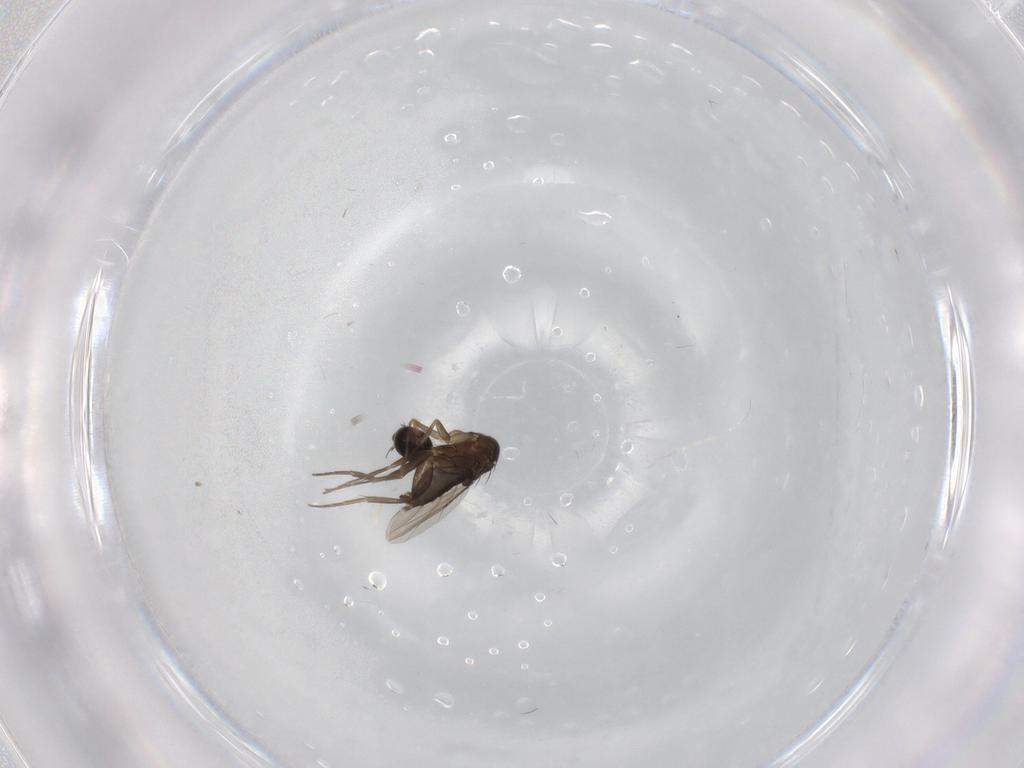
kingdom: Animalia
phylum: Arthropoda
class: Insecta
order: Diptera
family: Phoridae
